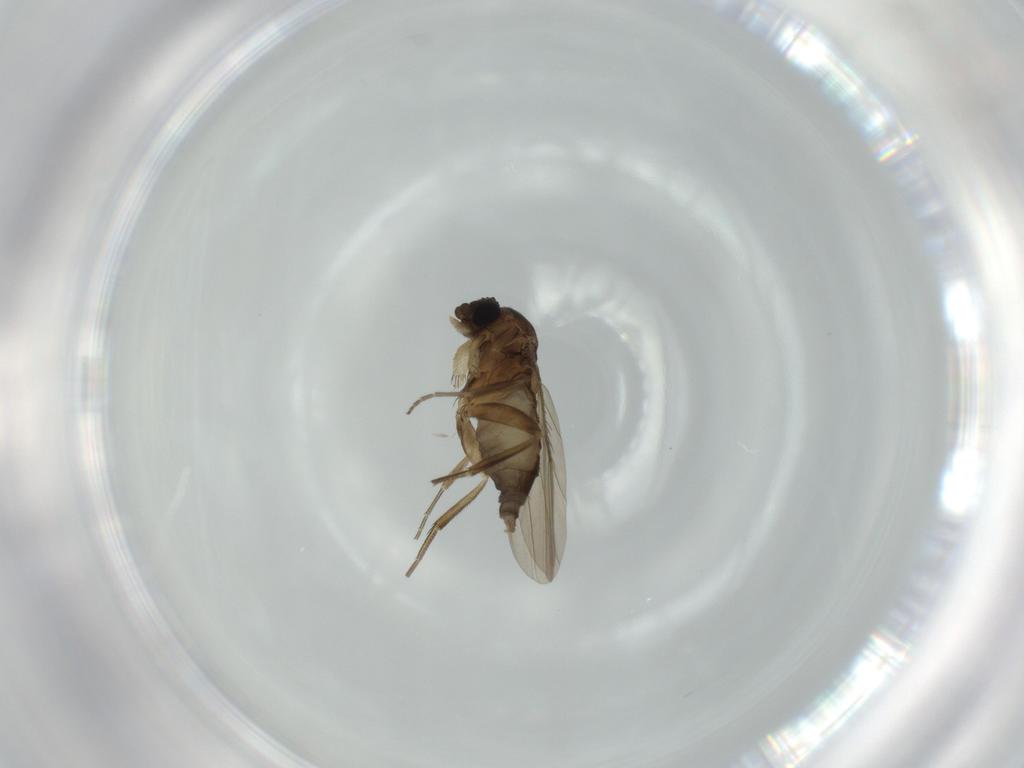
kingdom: Animalia
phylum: Arthropoda
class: Insecta
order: Diptera
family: Phoridae
